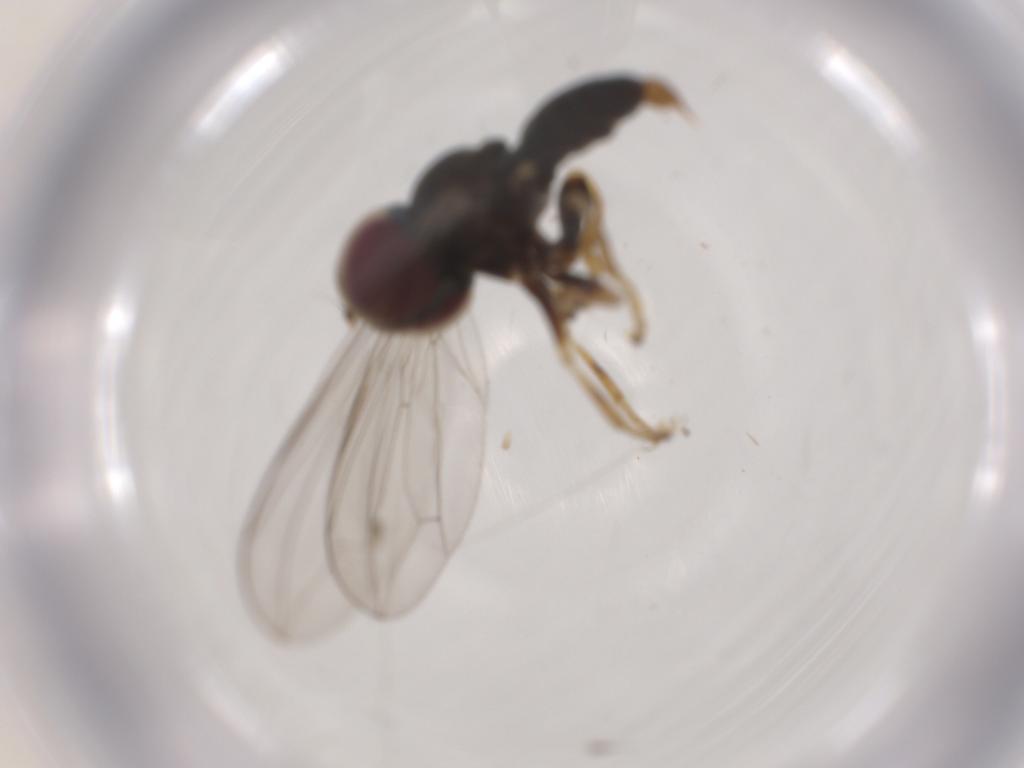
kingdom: Animalia
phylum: Arthropoda
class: Insecta
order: Diptera
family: Pipunculidae
